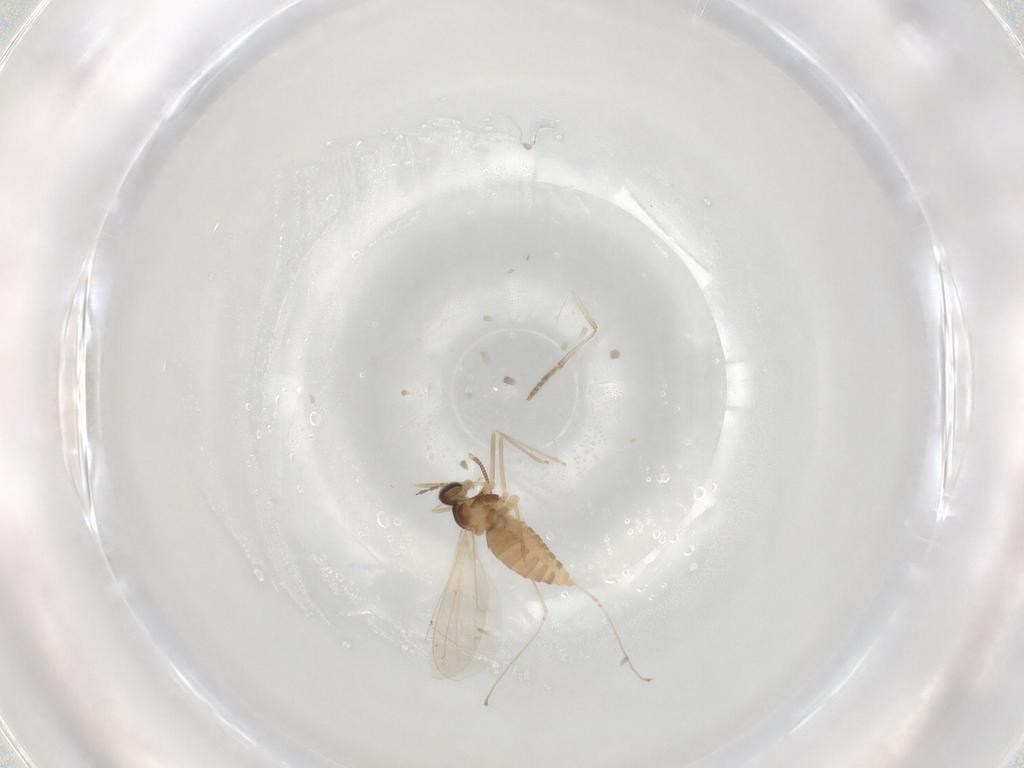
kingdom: Animalia
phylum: Arthropoda
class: Insecta
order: Diptera
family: Cecidomyiidae
